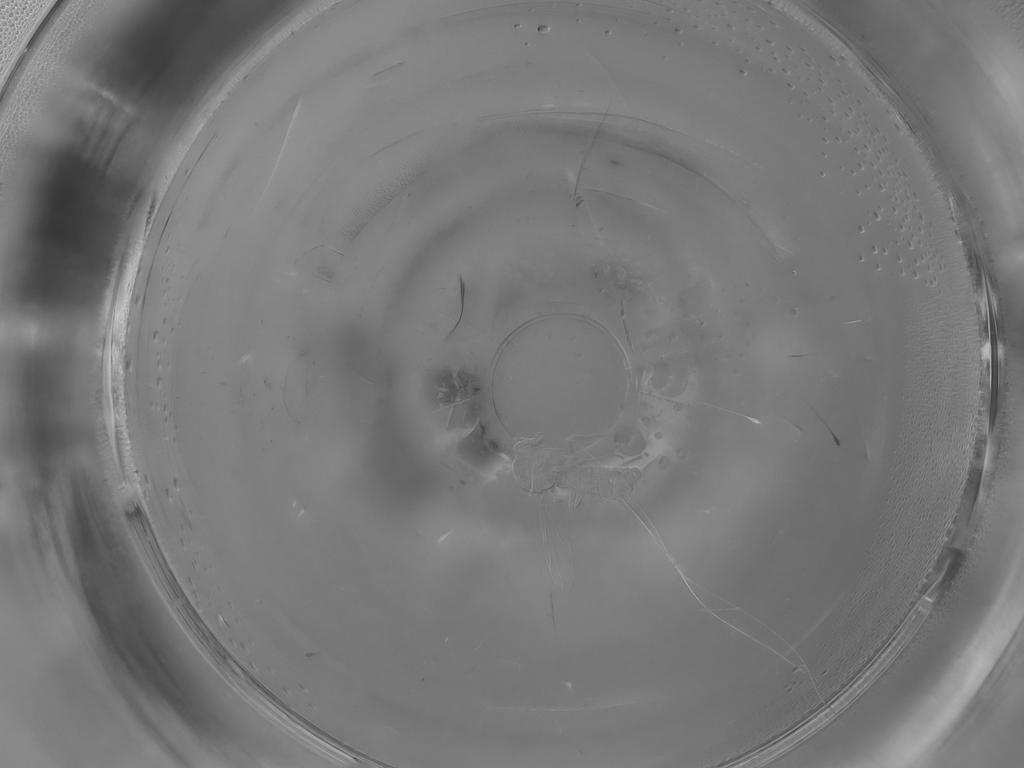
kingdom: Animalia
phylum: Arthropoda
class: Insecta
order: Diptera
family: Ceratopogonidae
